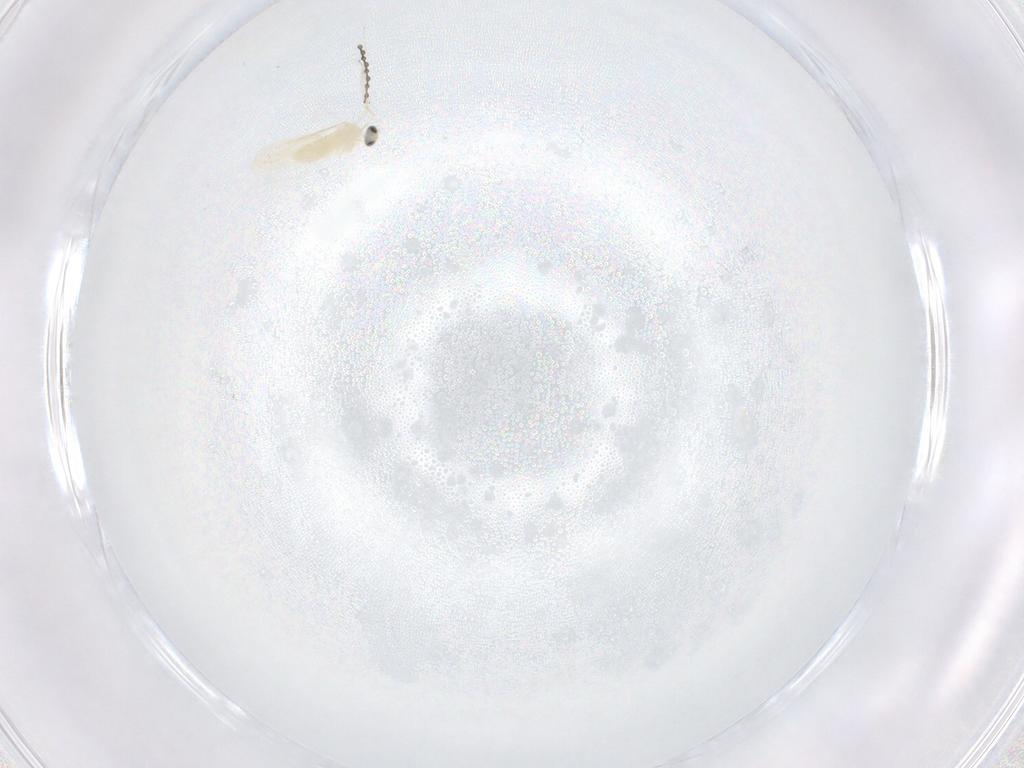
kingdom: Animalia
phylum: Arthropoda
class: Insecta
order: Diptera
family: Cecidomyiidae
